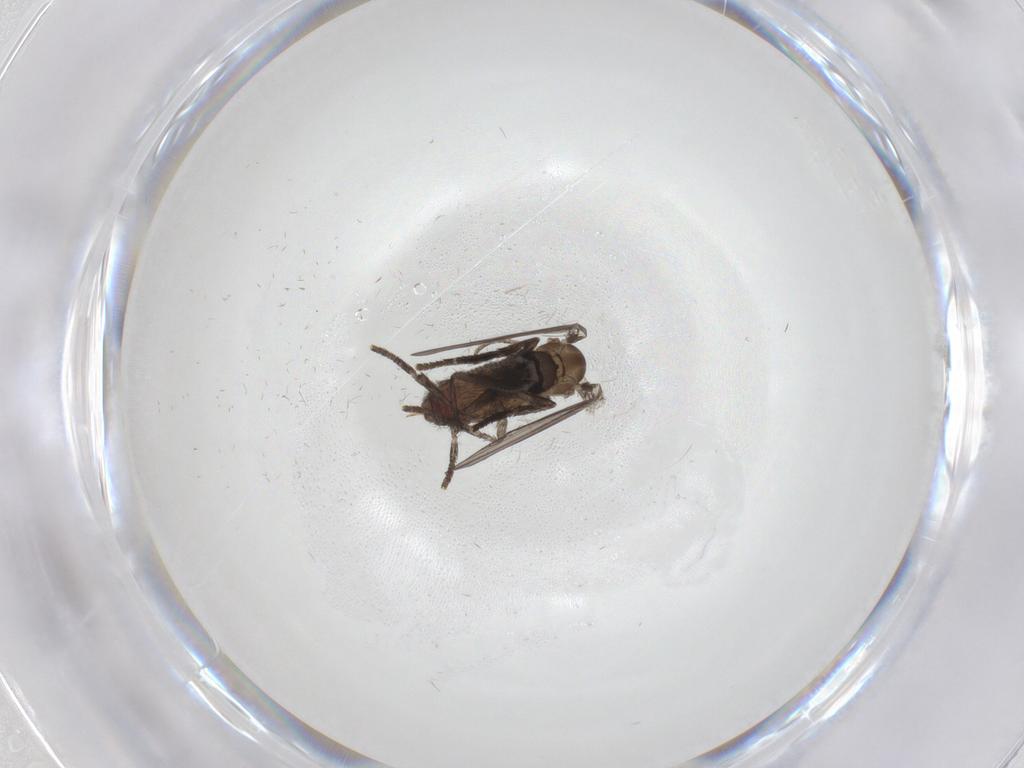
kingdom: Animalia
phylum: Arthropoda
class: Insecta
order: Diptera
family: Psychodidae
